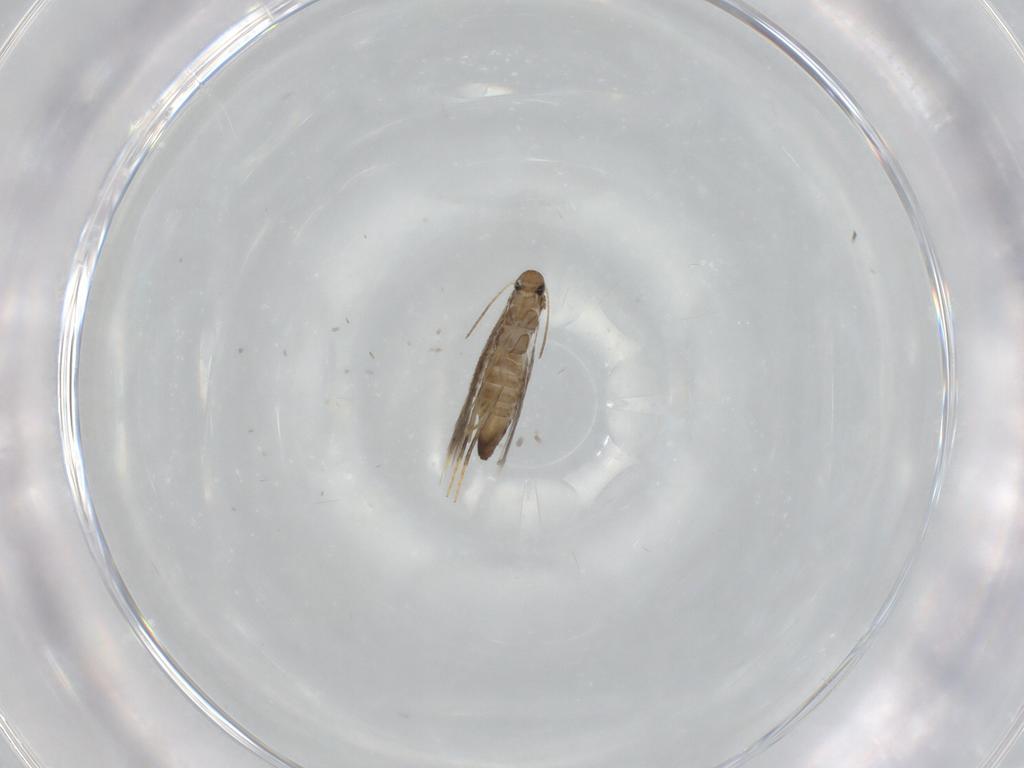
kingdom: Animalia
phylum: Arthropoda
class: Insecta
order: Lepidoptera
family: Heliozelidae
